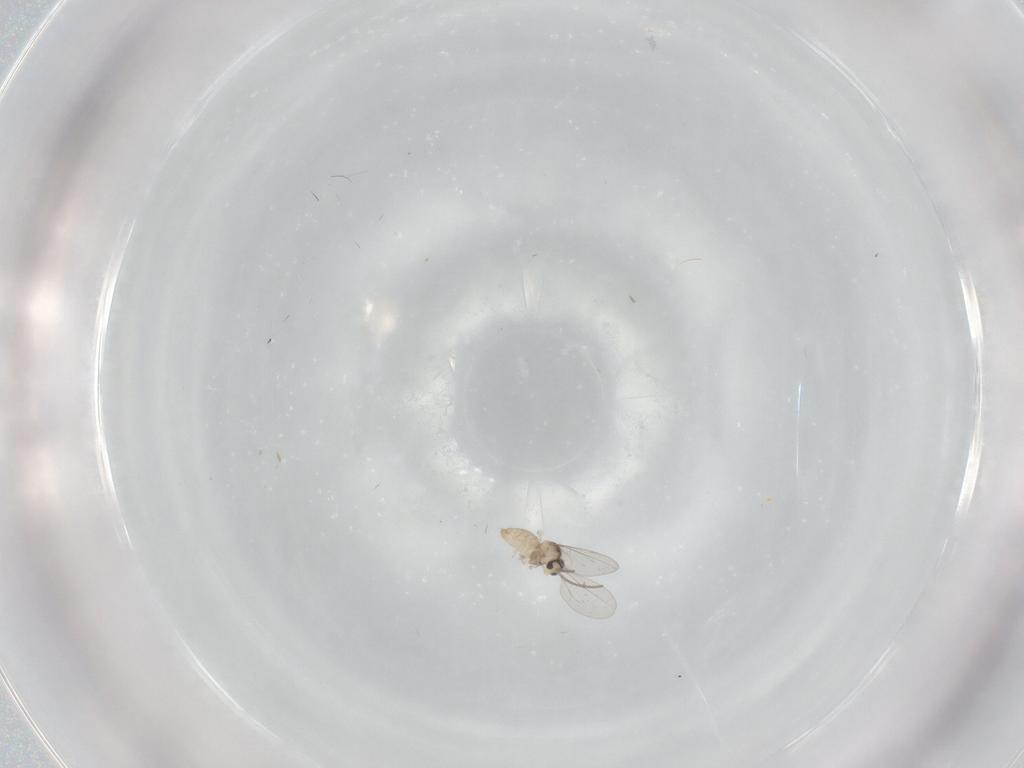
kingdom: Animalia
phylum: Arthropoda
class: Insecta
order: Diptera
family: Cecidomyiidae
